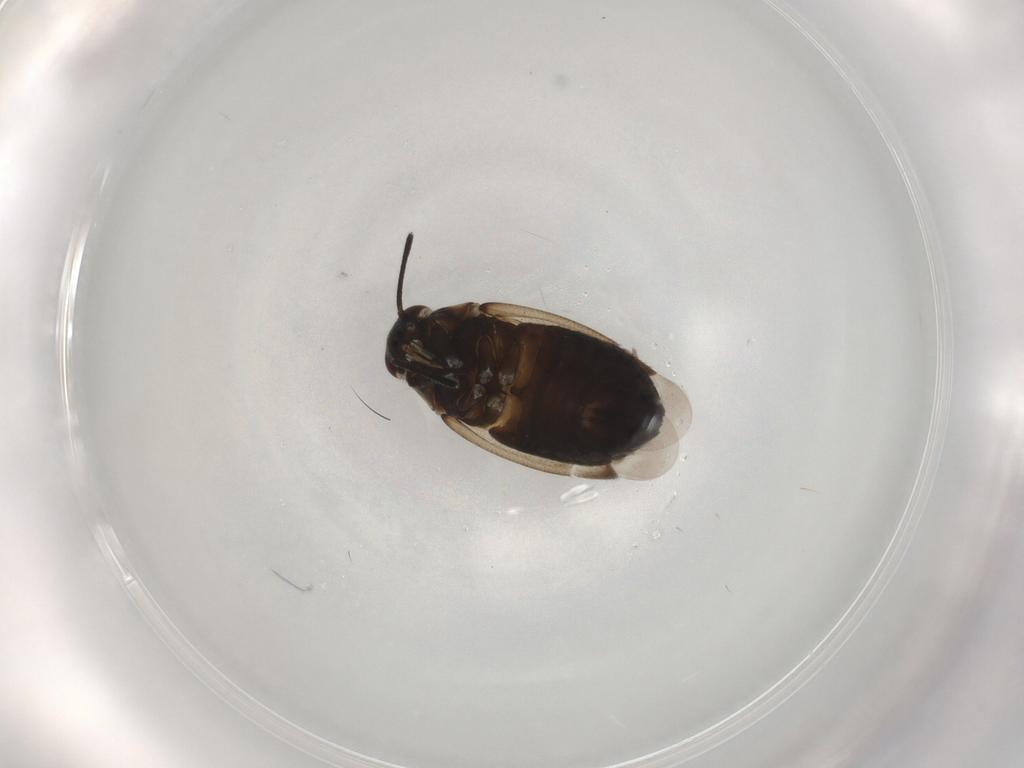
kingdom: Animalia
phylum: Arthropoda
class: Insecta
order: Hemiptera
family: Miridae
